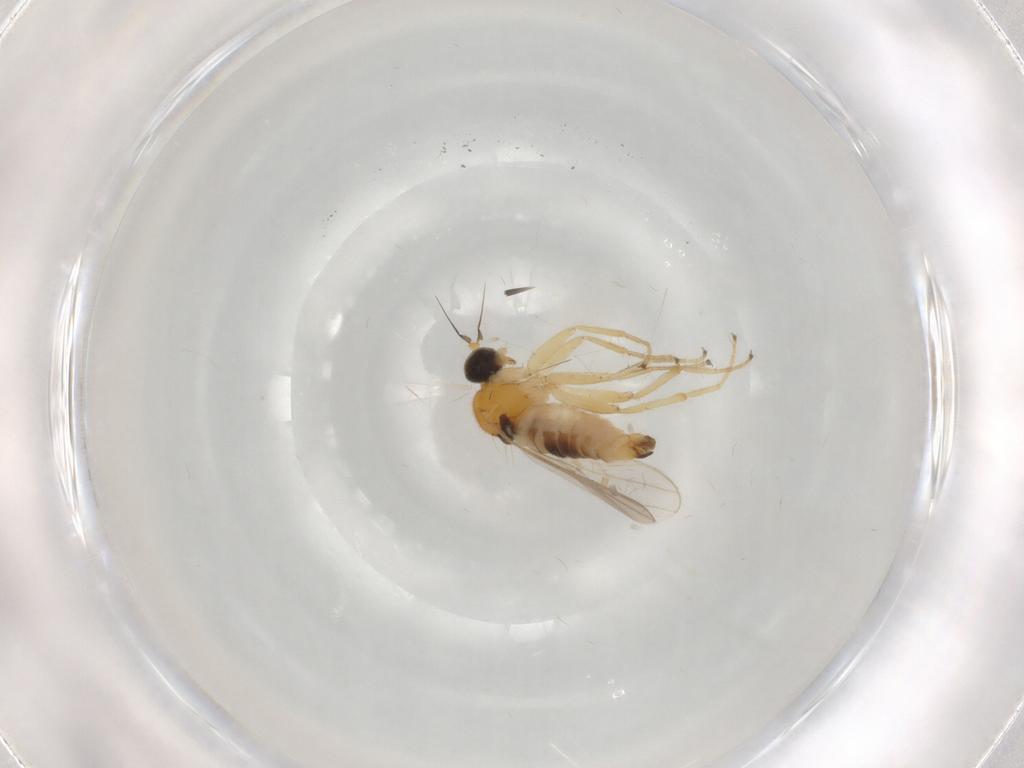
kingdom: Animalia
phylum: Arthropoda
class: Insecta
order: Diptera
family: Hybotidae
